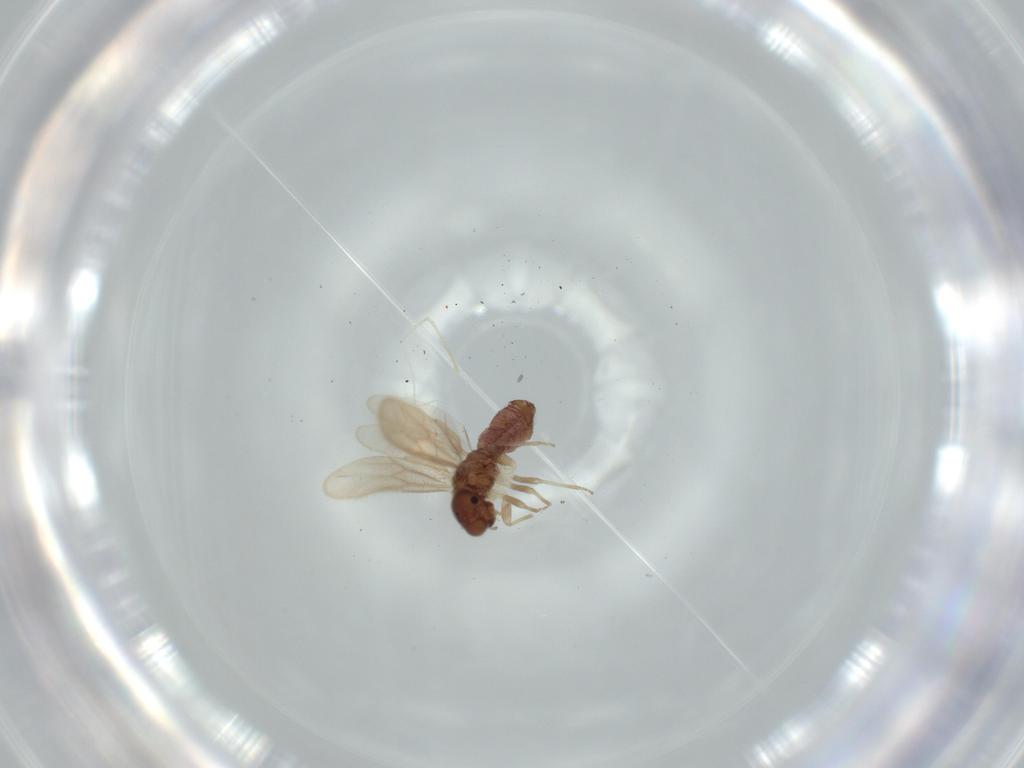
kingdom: Animalia
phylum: Arthropoda
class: Insecta
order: Psocodea
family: Archipsocidae
